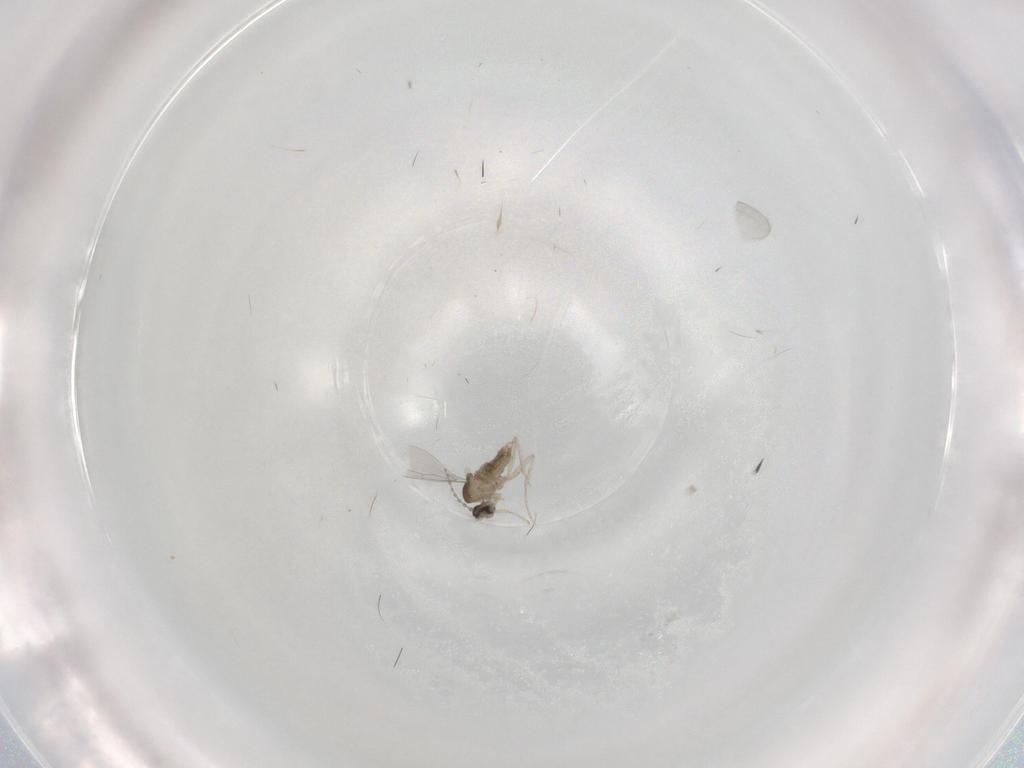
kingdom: Animalia
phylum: Arthropoda
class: Insecta
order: Diptera
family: Cecidomyiidae
